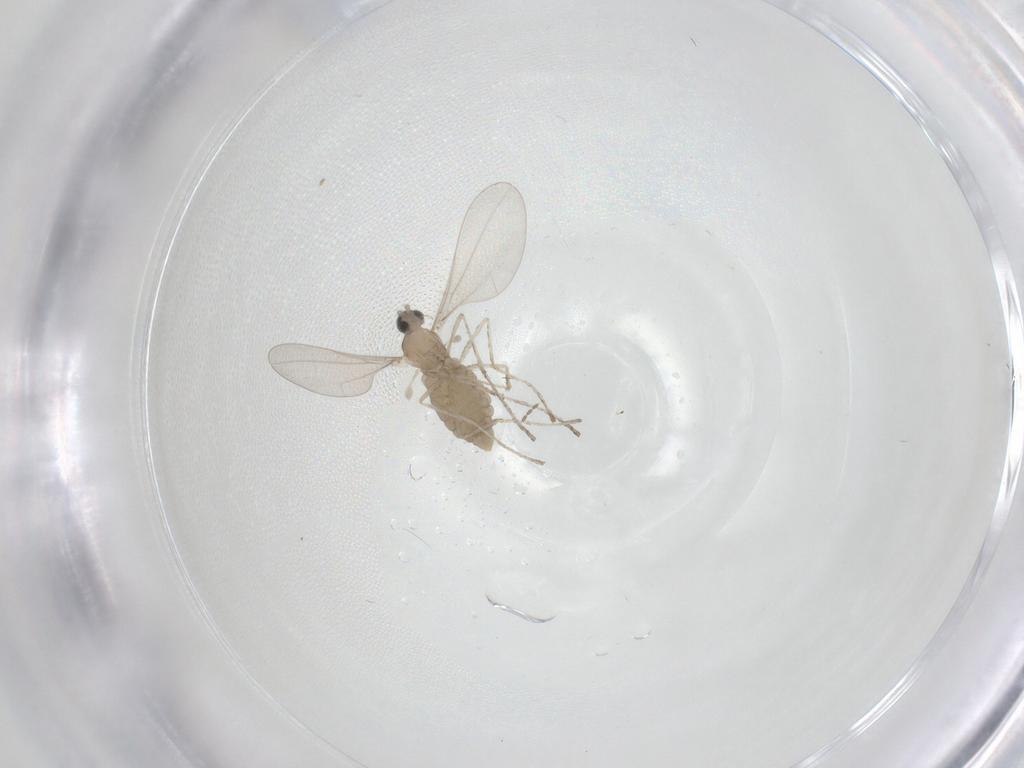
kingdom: Animalia
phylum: Arthropoda
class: Insecta
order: Diptera
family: Cecidomyiidae
